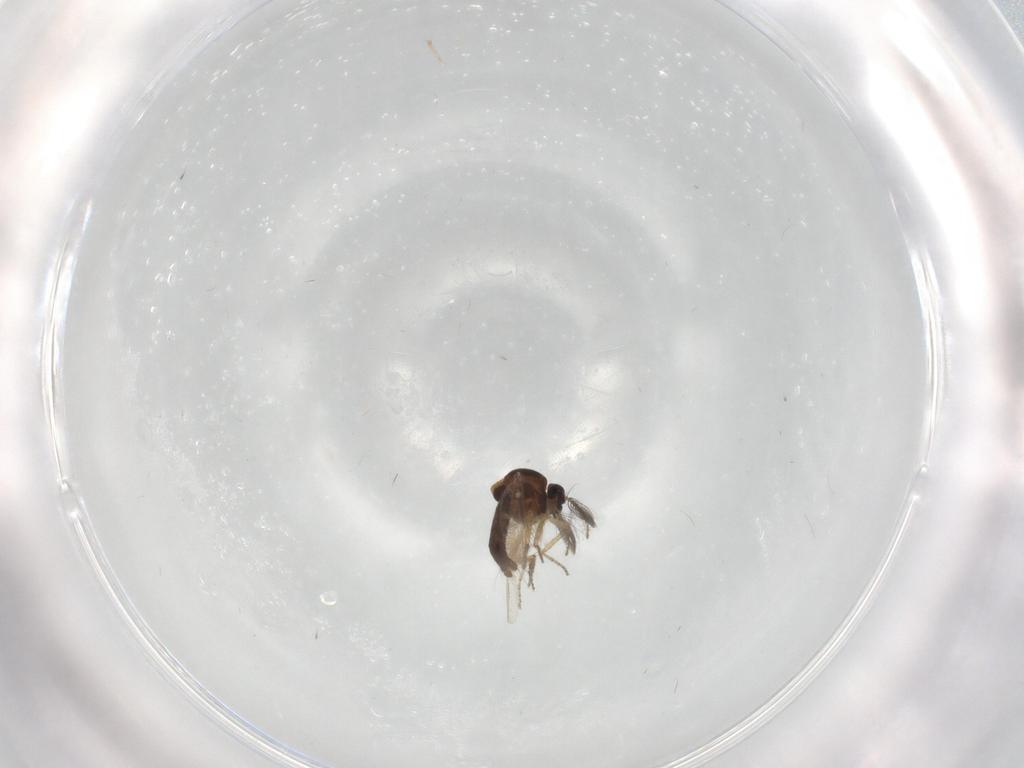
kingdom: Animalia
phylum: Arthropoda
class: Insecta
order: Diptera
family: Ceratopogonidae
